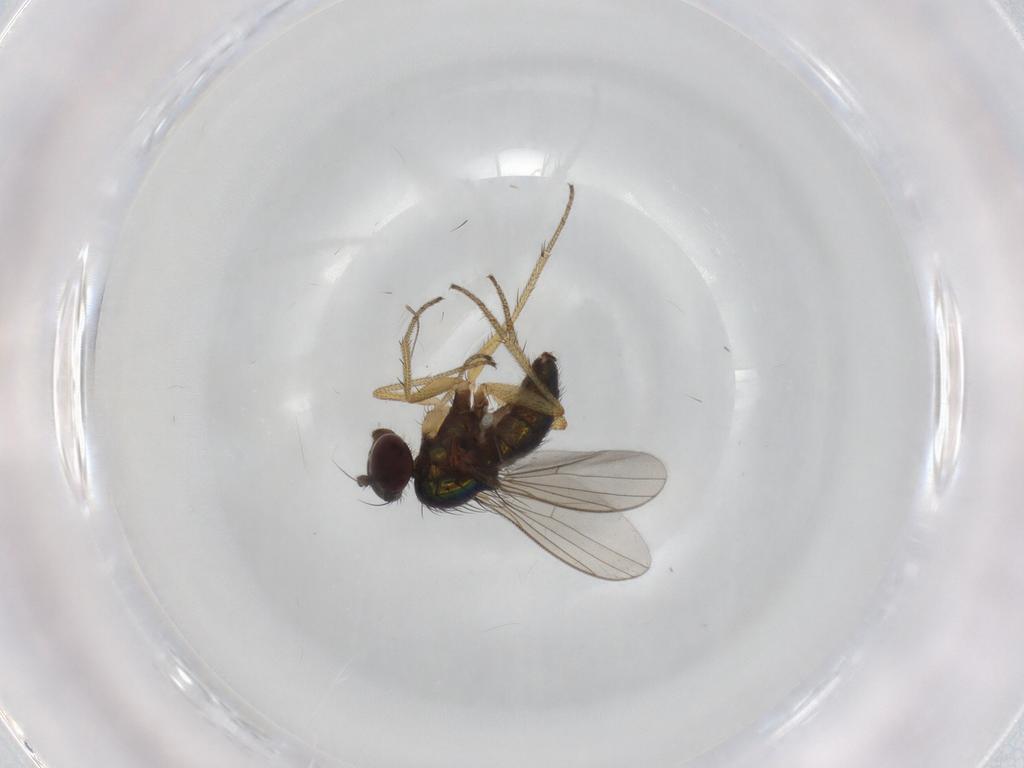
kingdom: Animalia
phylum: Arthropoda
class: Insecta
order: Diptera
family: Chironomidae
